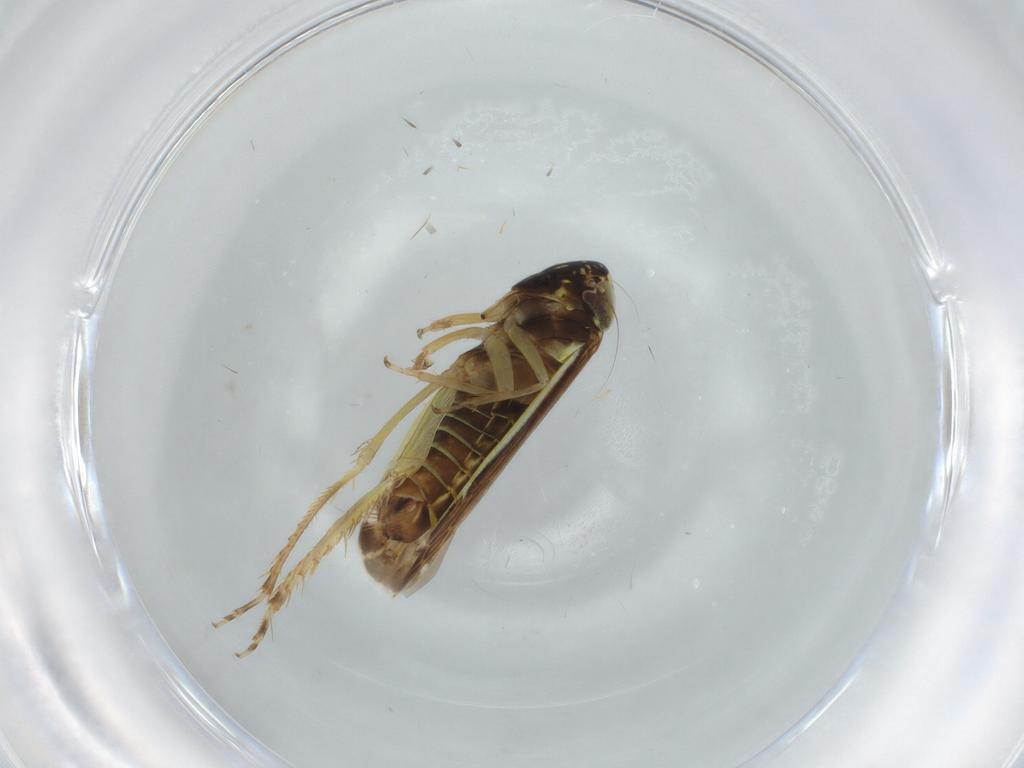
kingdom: Animalia
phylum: Arthropoda
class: Insecta
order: Hemiptera
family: Cicadellidae
